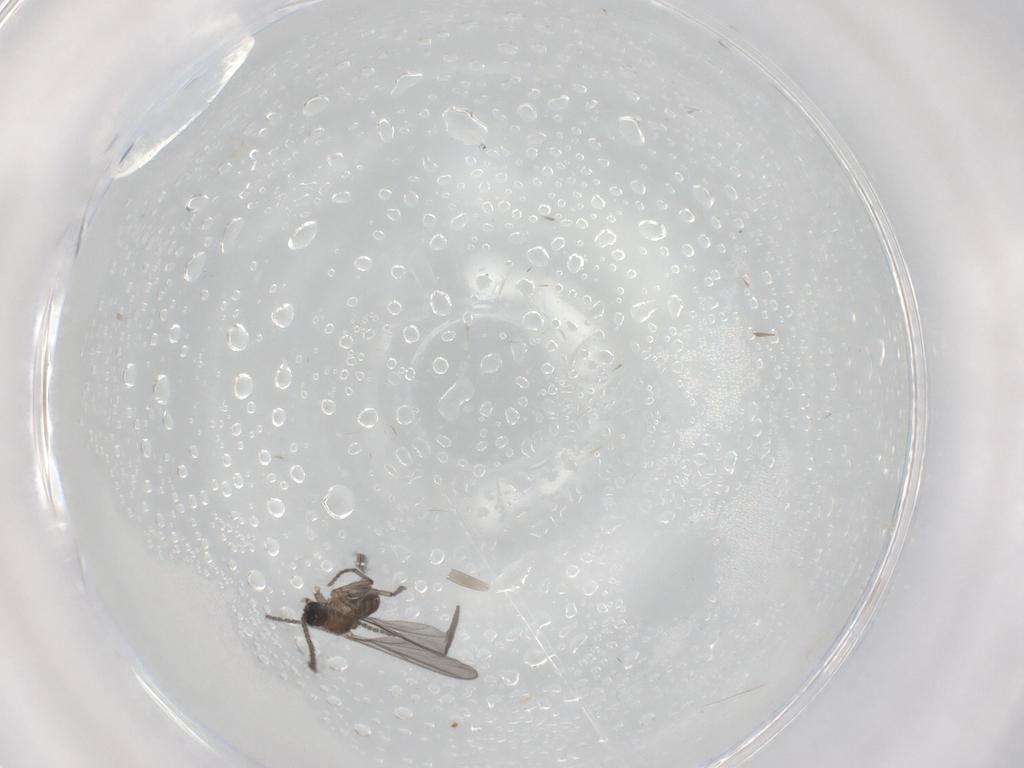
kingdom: Animalia
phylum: Arthropoda
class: Insecta
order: Diptera
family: Sciaridae
